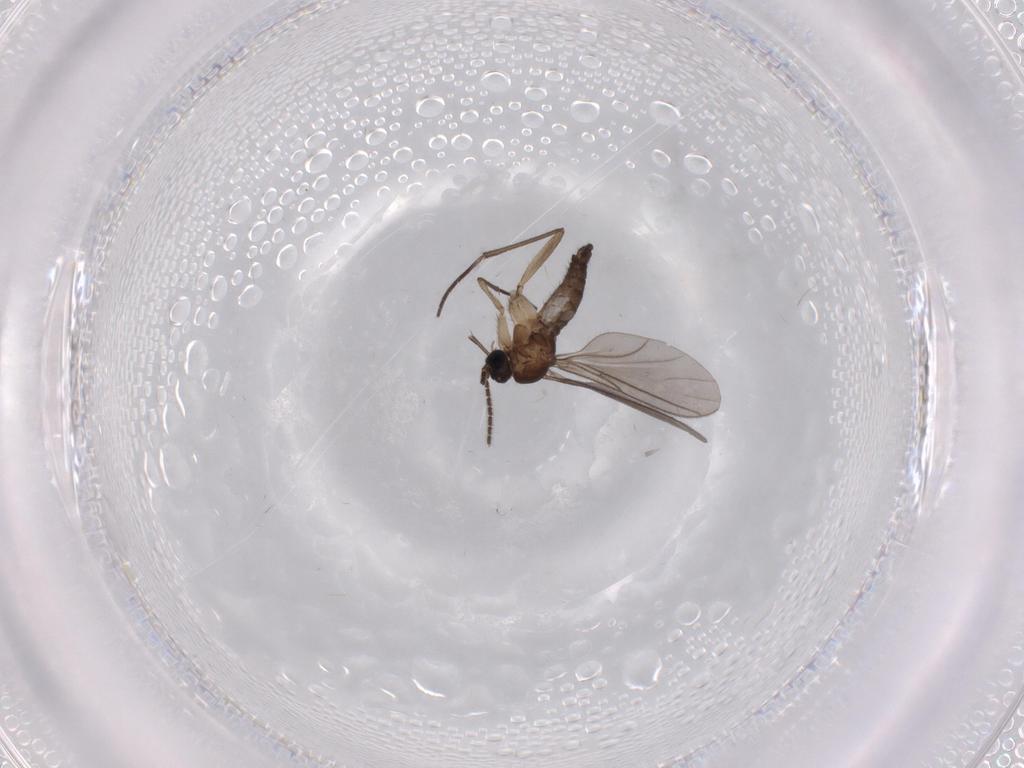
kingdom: Animalia
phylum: Arthropoda
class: Insecta
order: Diptera
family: Sciaridae
